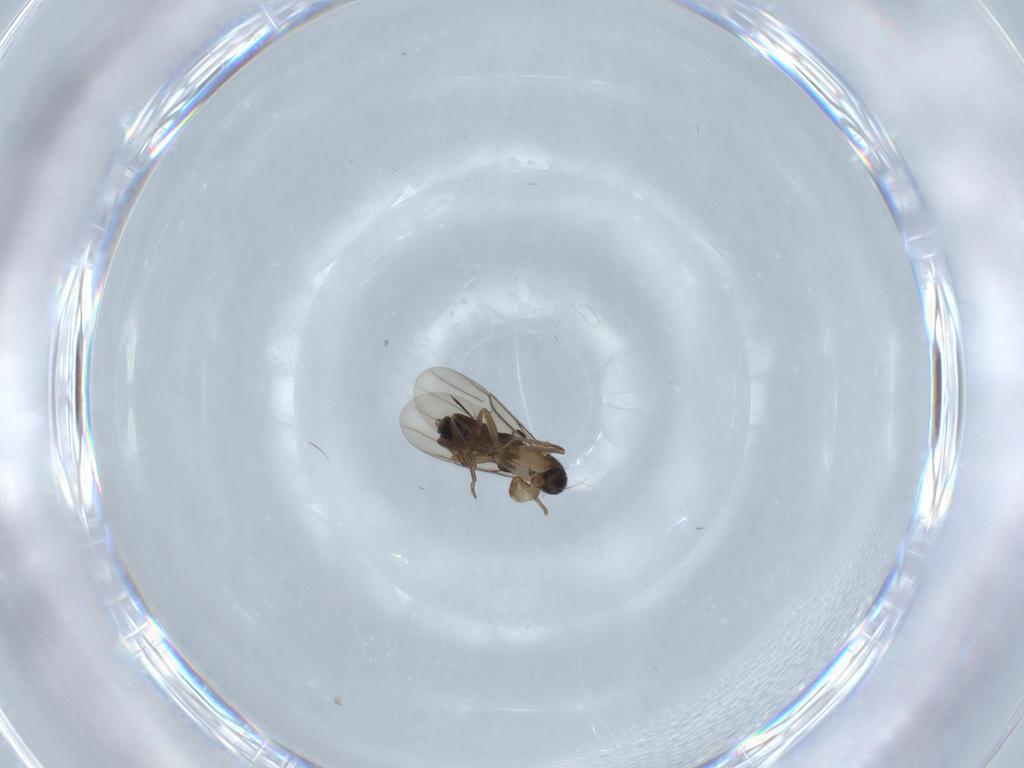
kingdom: Animalia
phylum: Arthropoda
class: Insecta
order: Diptera
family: Phoridae
